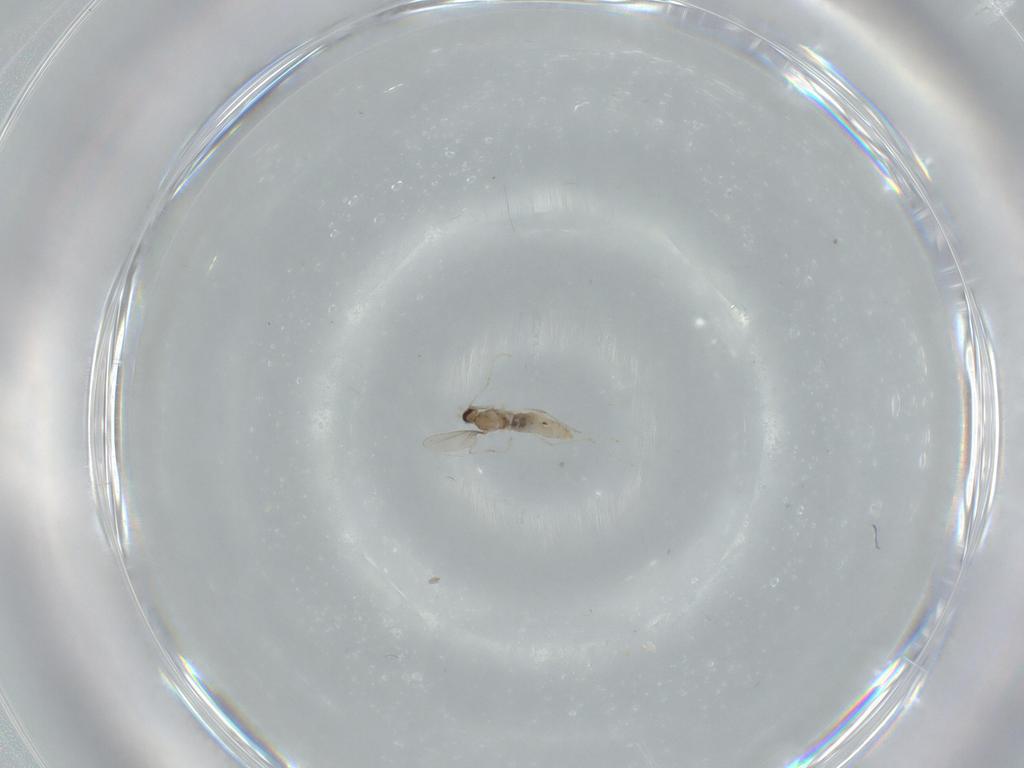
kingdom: Animalia
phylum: Arthropoda
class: Insecta
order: Diptera
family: Cecidomyiidae
